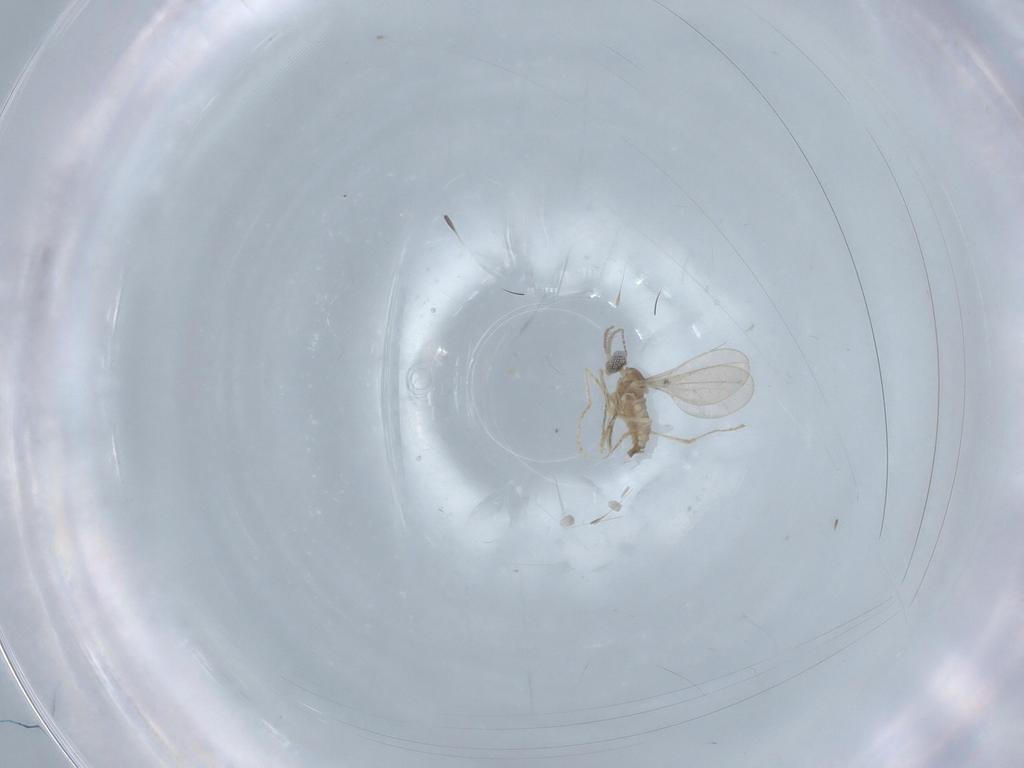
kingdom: Animalia
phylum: Arthropoda
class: Insecta
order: Diptera
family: Cecidomyiidae
